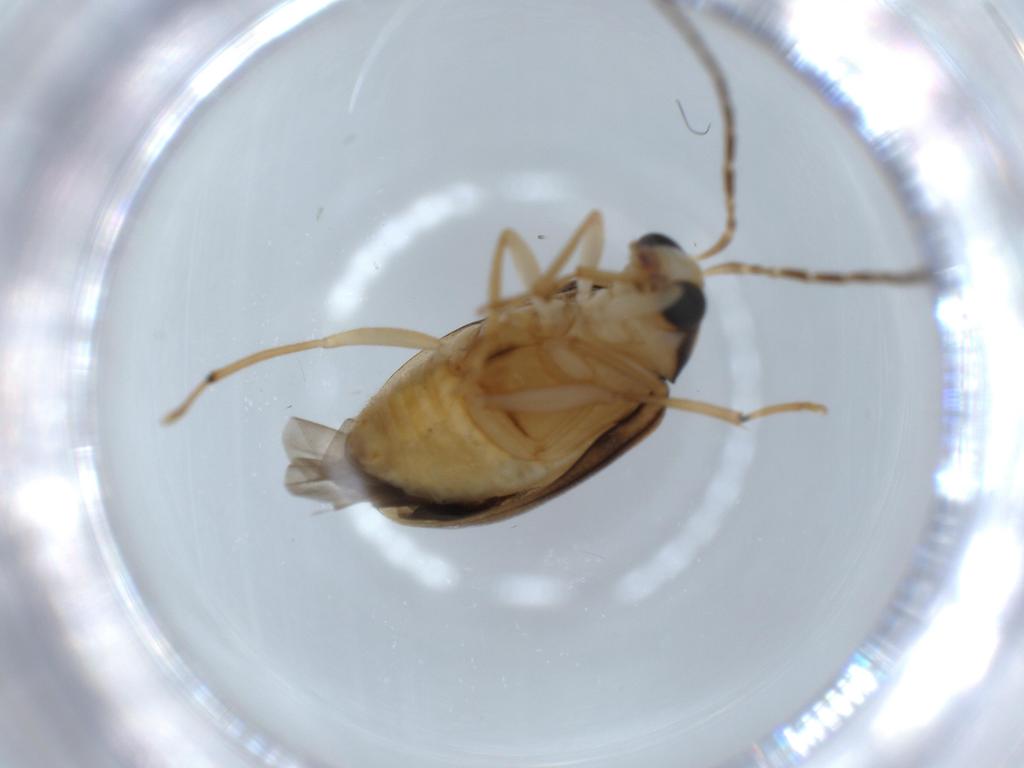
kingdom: Animalia
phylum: Arthropoda
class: Insecta
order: Coleoptera
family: Chrysomelidae
